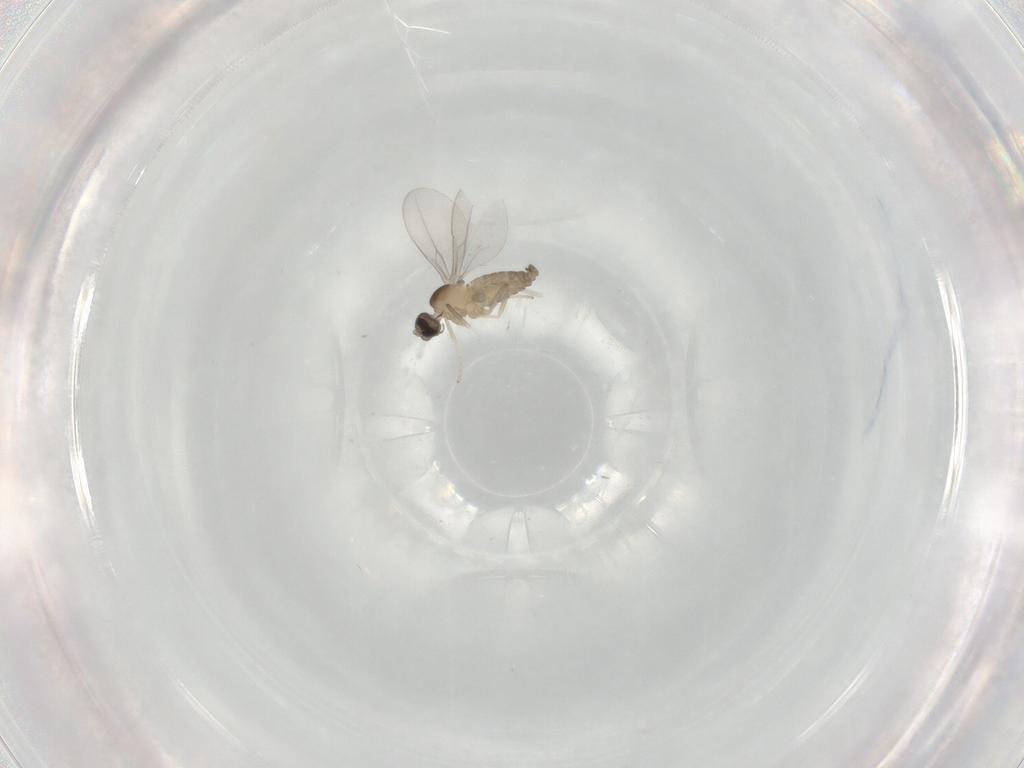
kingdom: Animalia
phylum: Arthropoda
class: Insecta
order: Diptera
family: Cecidomyiidae
